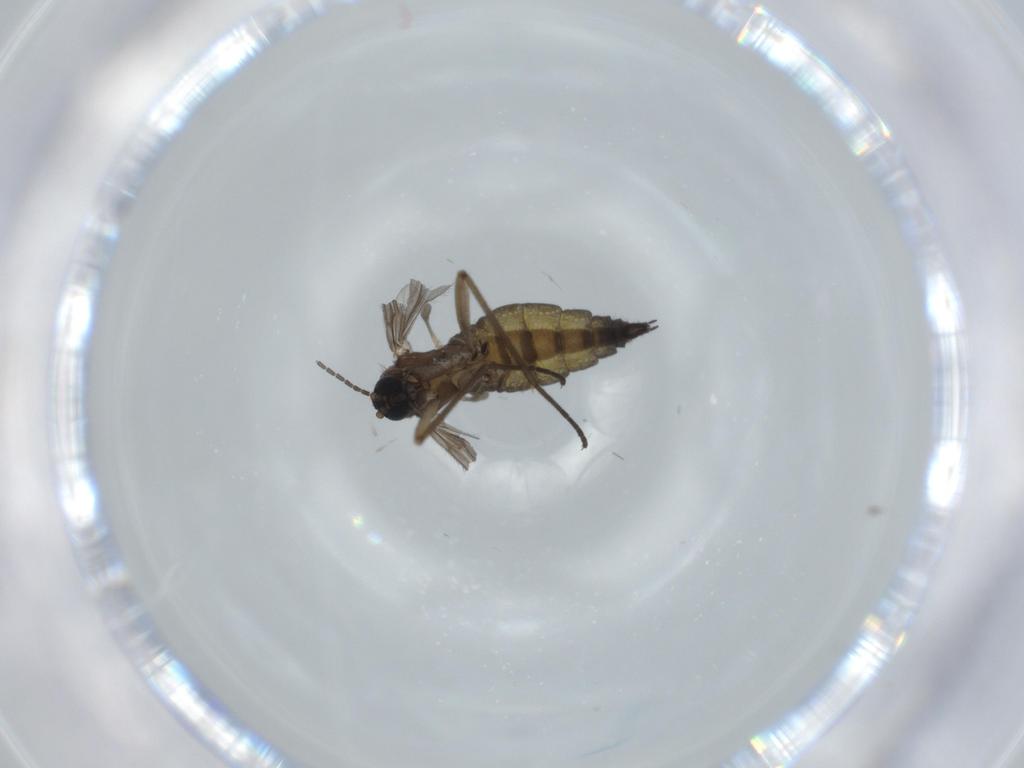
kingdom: Animalia
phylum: Arthropoda
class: Insecta
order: Diptera
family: Sciaridae
